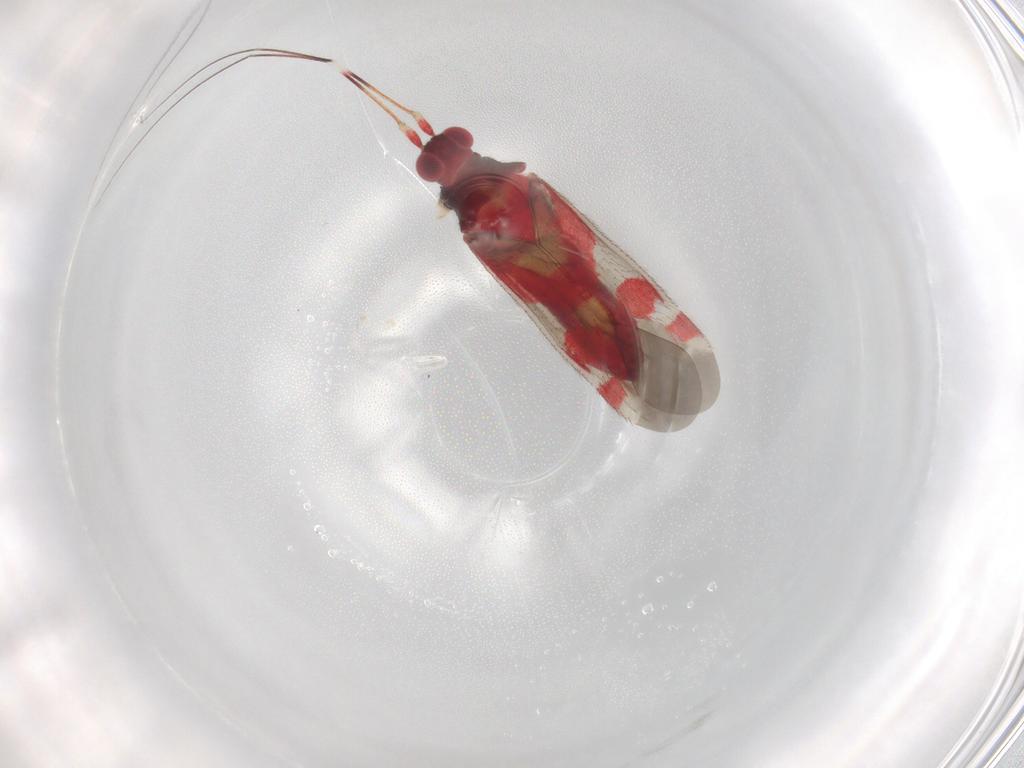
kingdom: Animalia
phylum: Arthropoda
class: Insecta
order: Hemiptera
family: Miridae
